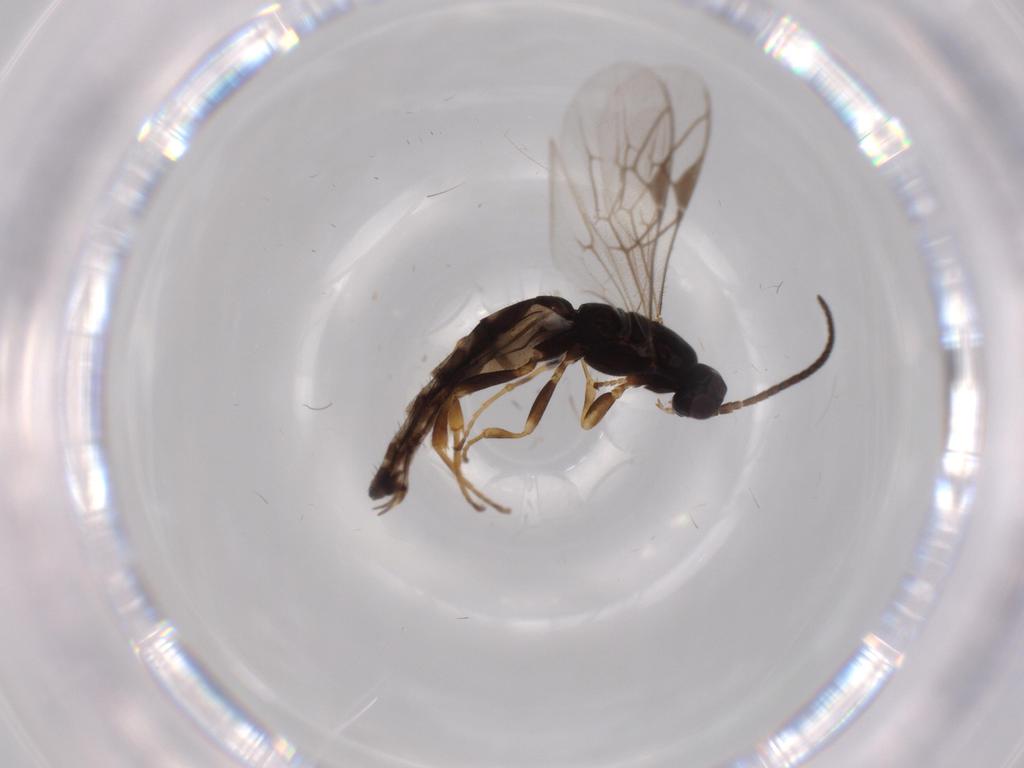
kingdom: Animalia
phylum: Arthropoda
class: Insecta
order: Hymenoptera
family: Ichneumonidae
